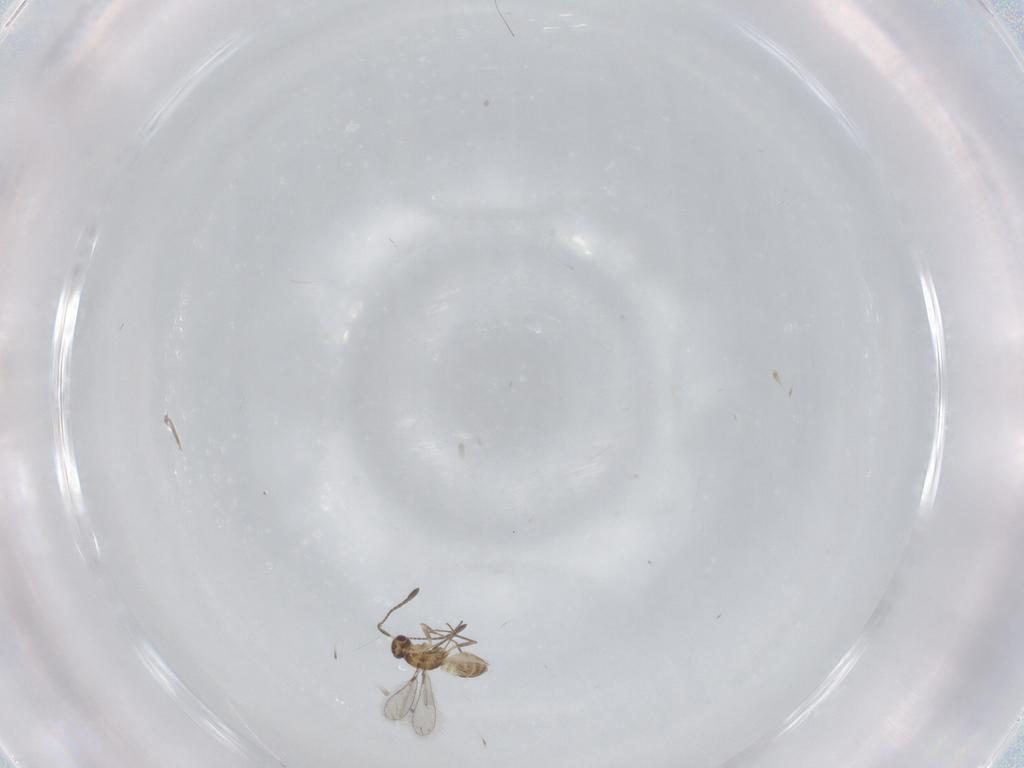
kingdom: Animalia
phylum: Arthropoda
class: Insecta
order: Hymenoptera
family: Mymaridae
